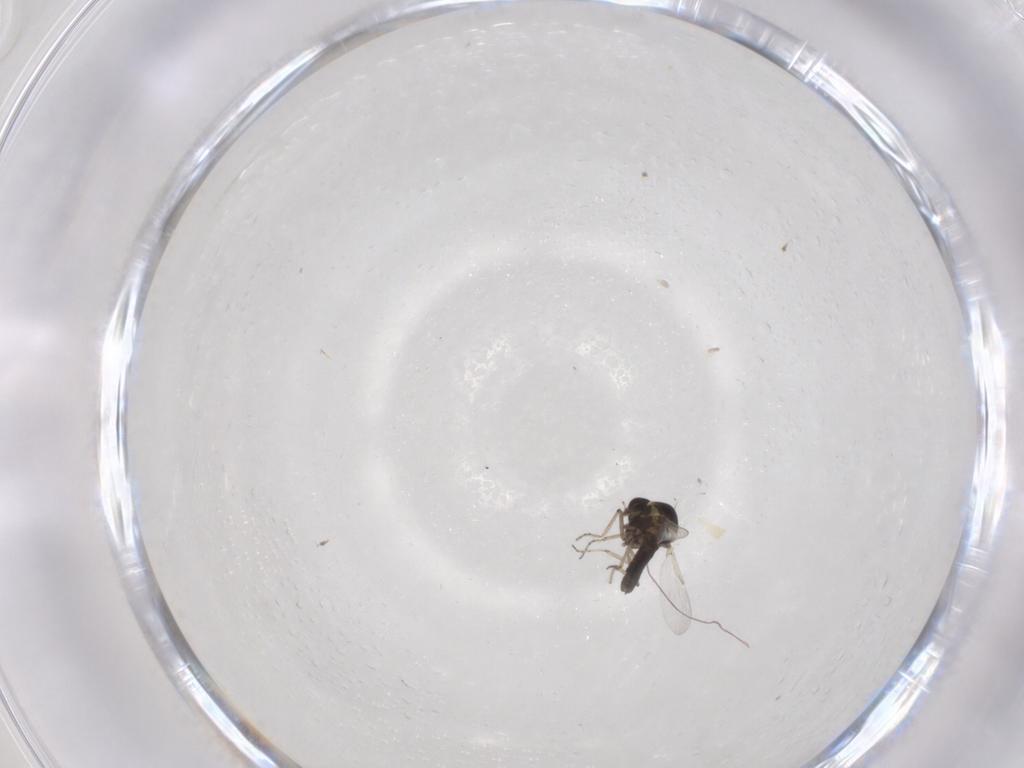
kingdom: Animalia
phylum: Arthropoda
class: Insecta
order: Diptera
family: Ceratopogonidae
